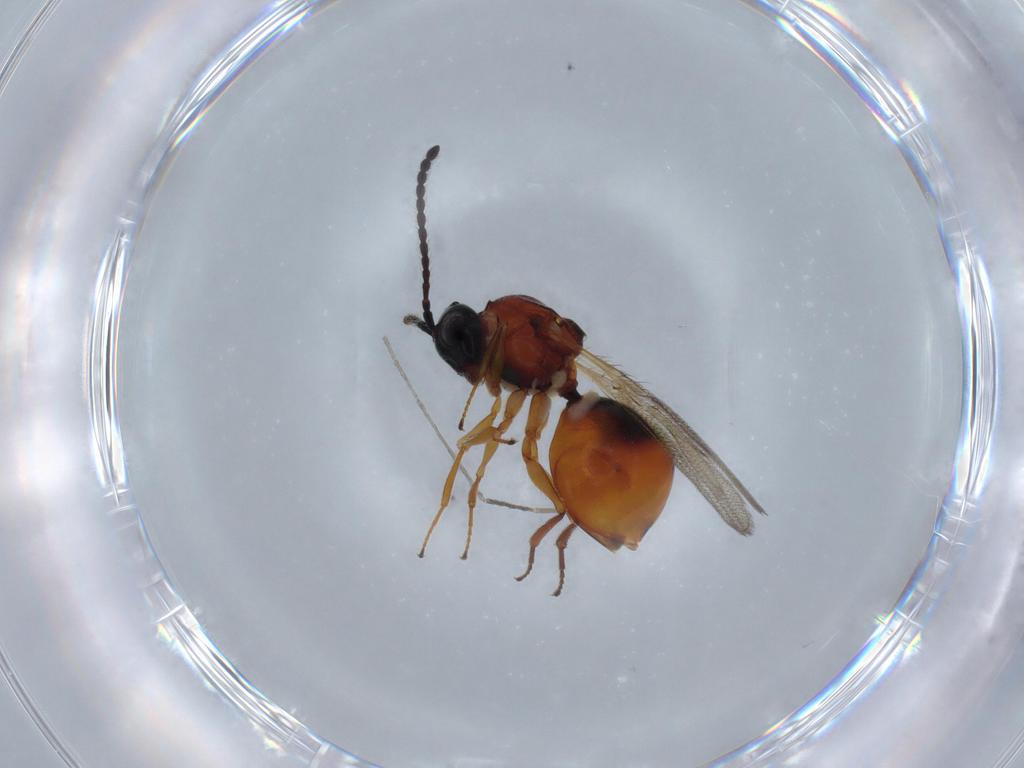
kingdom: Animalia
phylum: Arthropoda
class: Insecta
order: Hymenoptera
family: Figitidae
